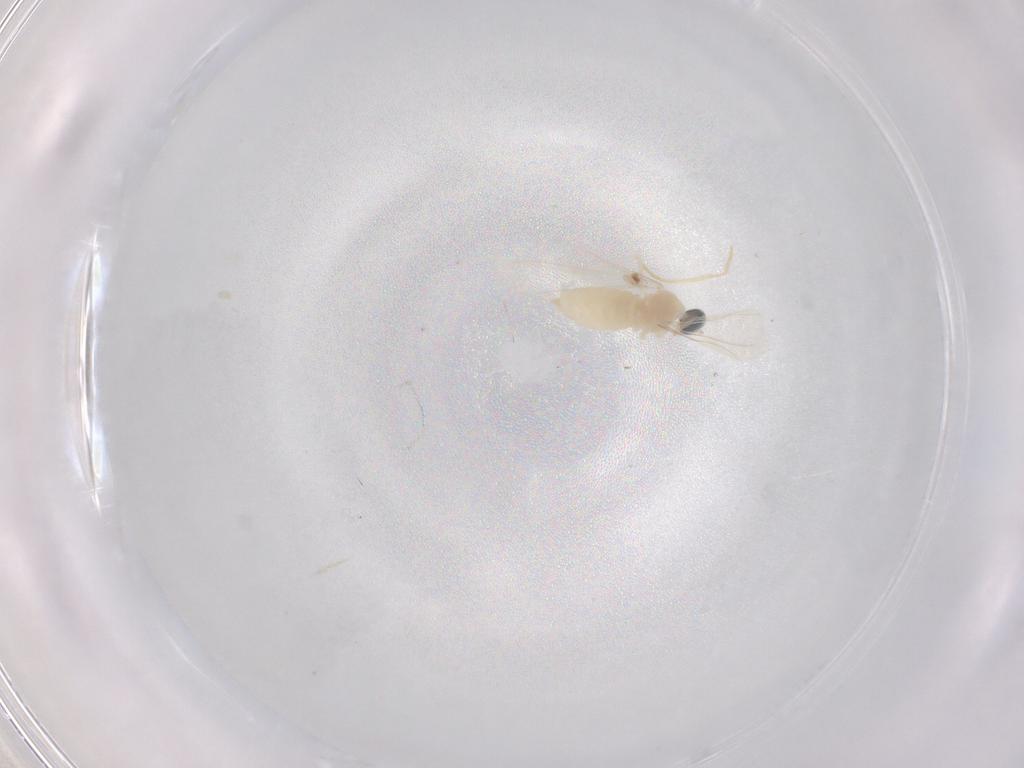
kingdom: Animalia
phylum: Arthropoda
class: Insecta
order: Diptera
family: Cecidomyiidae
